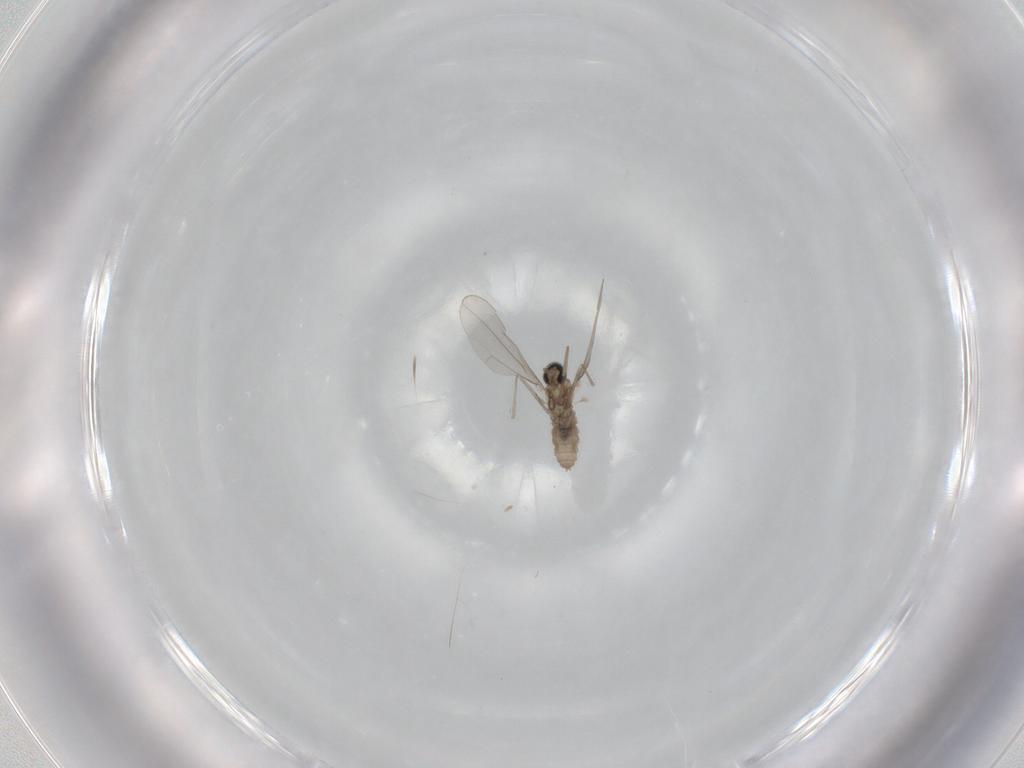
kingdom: Animalia
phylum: Arthropoda
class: Insecta
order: Diptera
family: Cecidomyiidae
